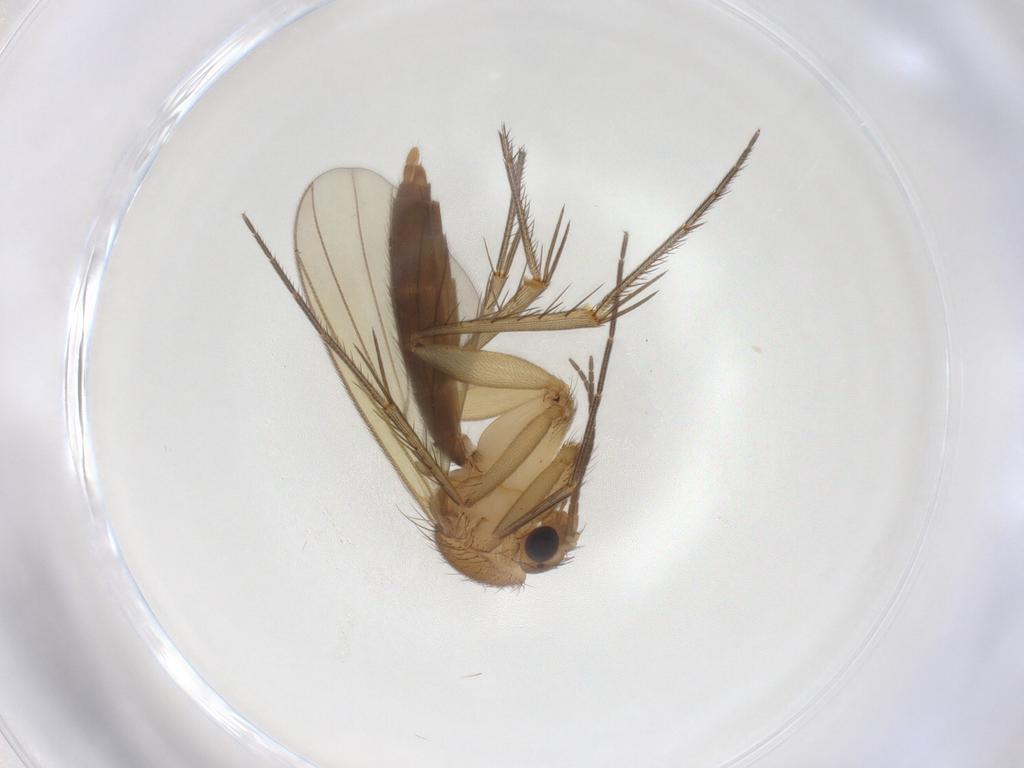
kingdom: Animalia
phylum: Arthropoda
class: Insecta
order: Diptera
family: Mycetophilidae
